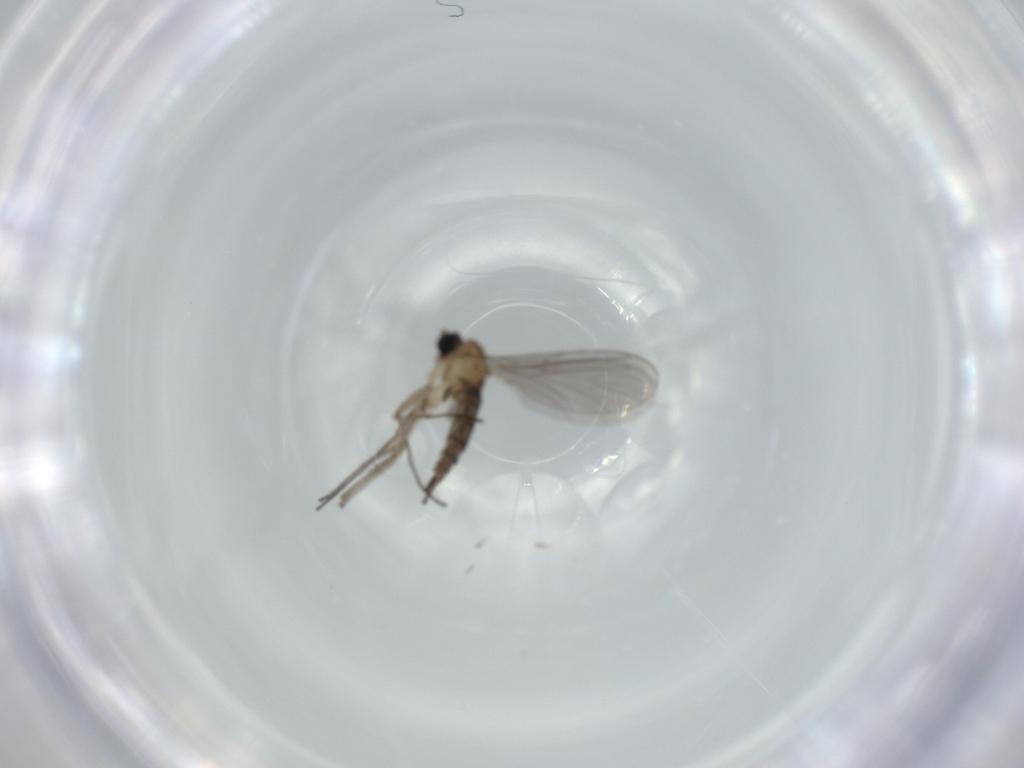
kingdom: Animalia
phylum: Arthropoda
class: Insecta
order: Diptera
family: Sciaridae
